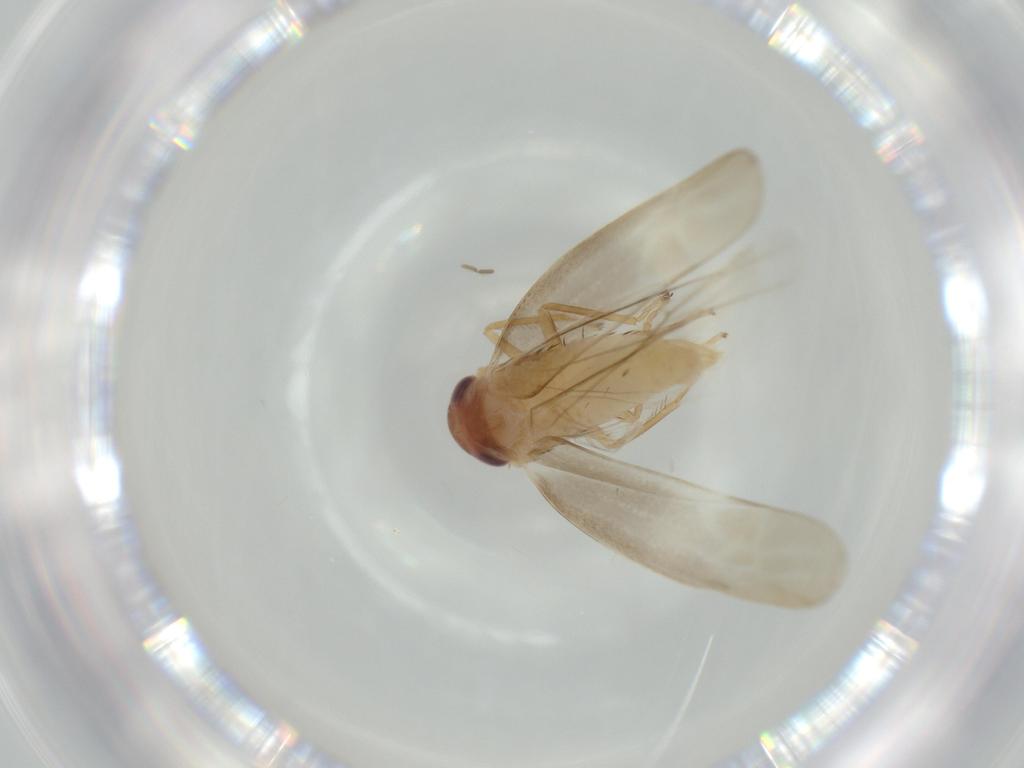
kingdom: Animalia
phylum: Arthropoda
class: Insecta
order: Hemiptera
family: Cicadellidae
